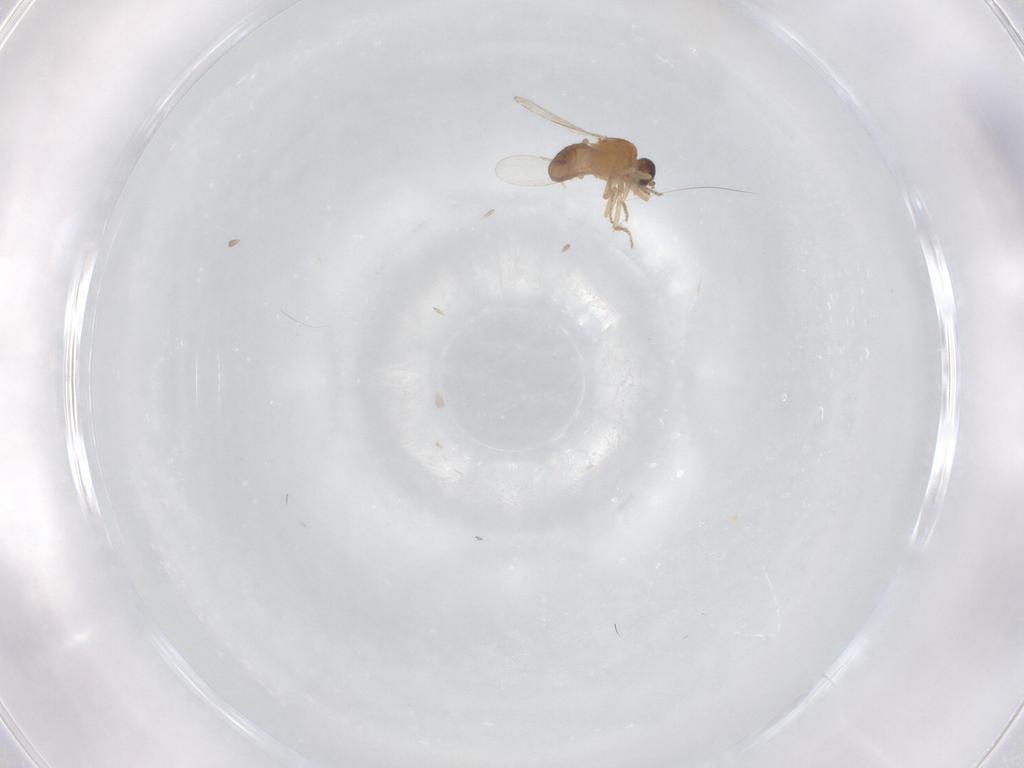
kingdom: Animalia
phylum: Arthropoda
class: Insecta
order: Diptera
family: Ceratopogonidae
